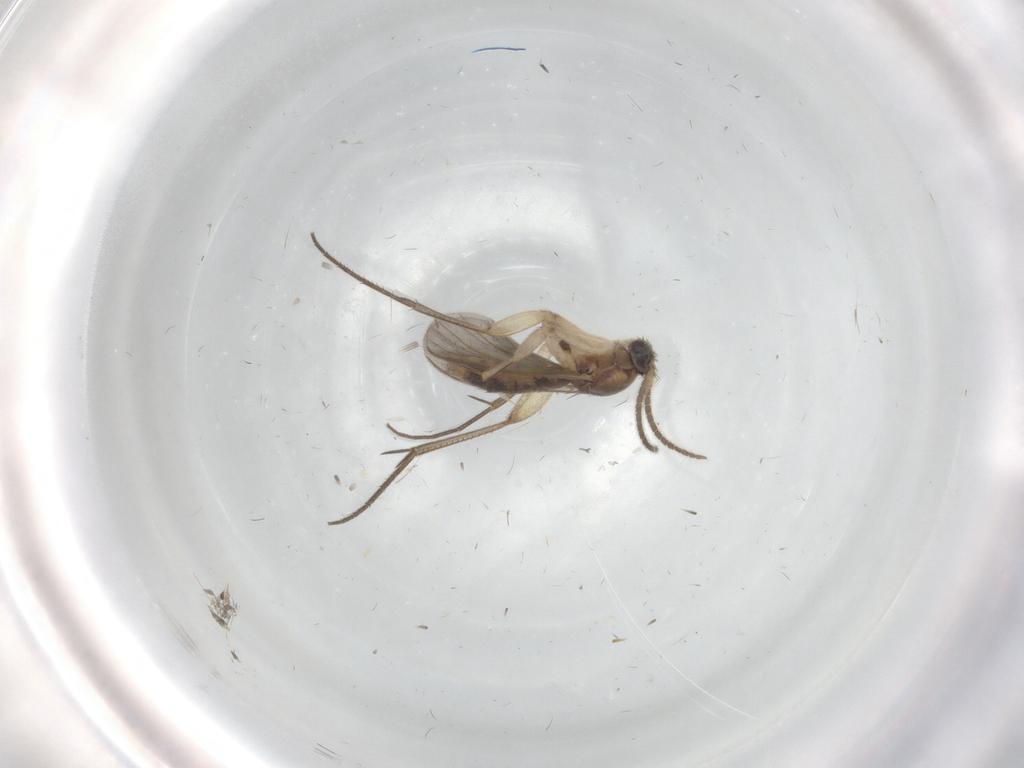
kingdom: Animalia
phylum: Arthropoda
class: Insecta
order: Diptera
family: Mycetophilidae
